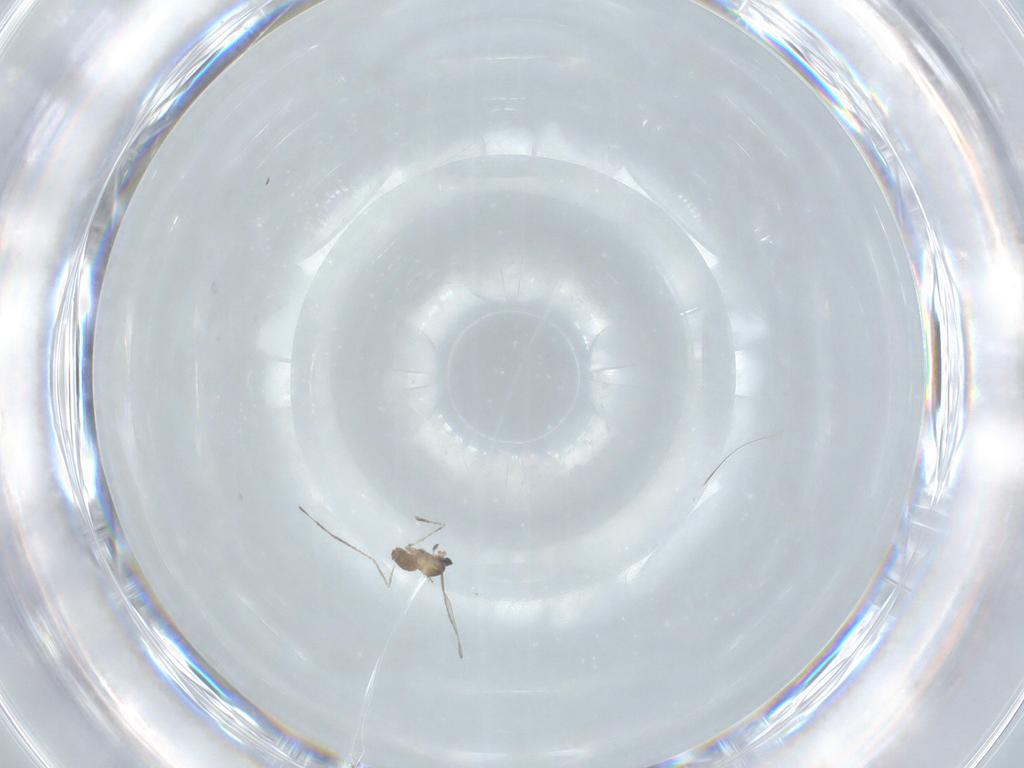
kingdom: Animalia
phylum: Arthropoda
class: Insecta
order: Diptera
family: Cecidomyiidae
